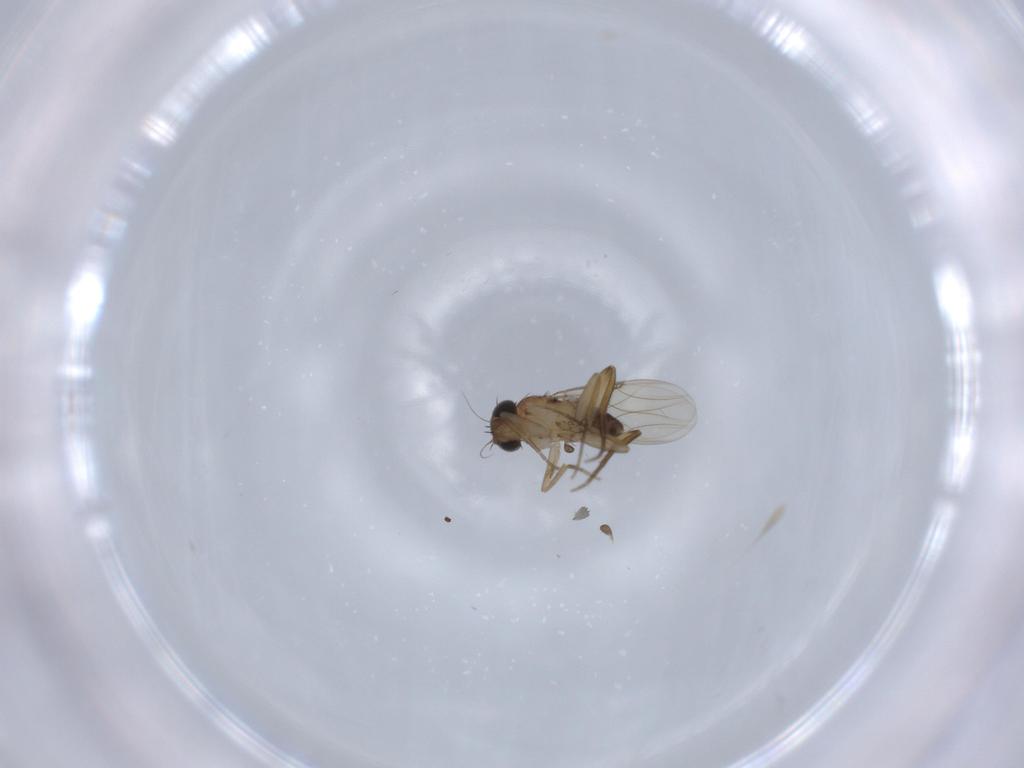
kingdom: Animalia
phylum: Arthropoda
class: Insecta
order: Diptera
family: Phoridae
